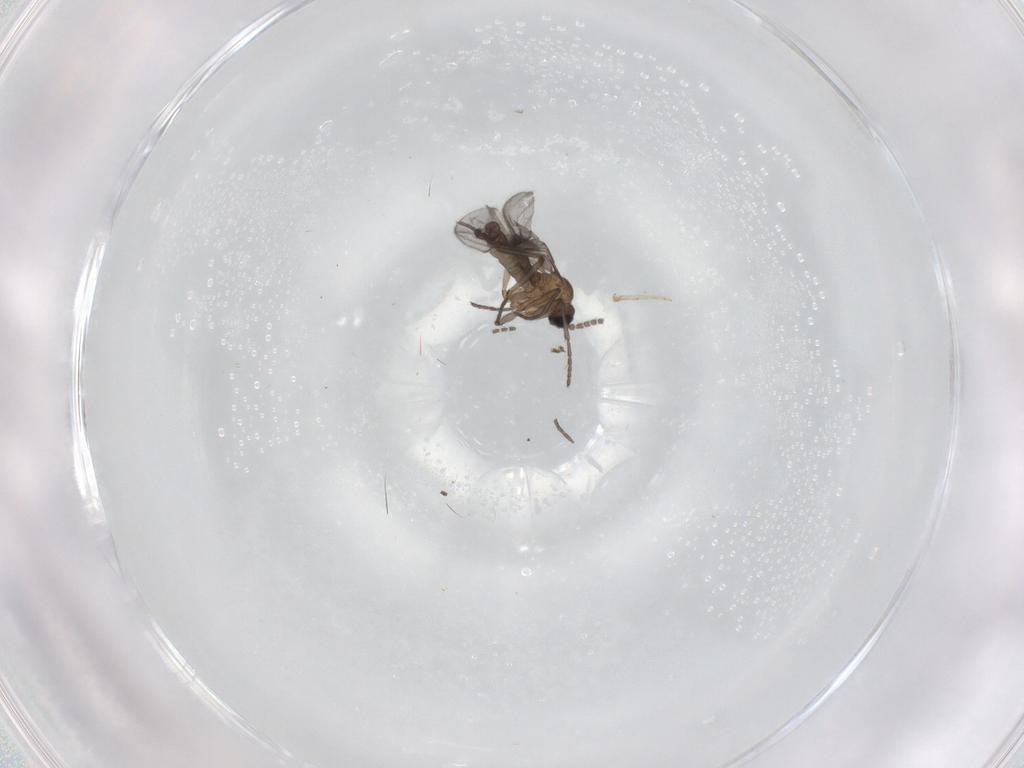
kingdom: Animalia
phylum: Arthropoda
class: Insecta
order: Diptera
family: Sciaridae
